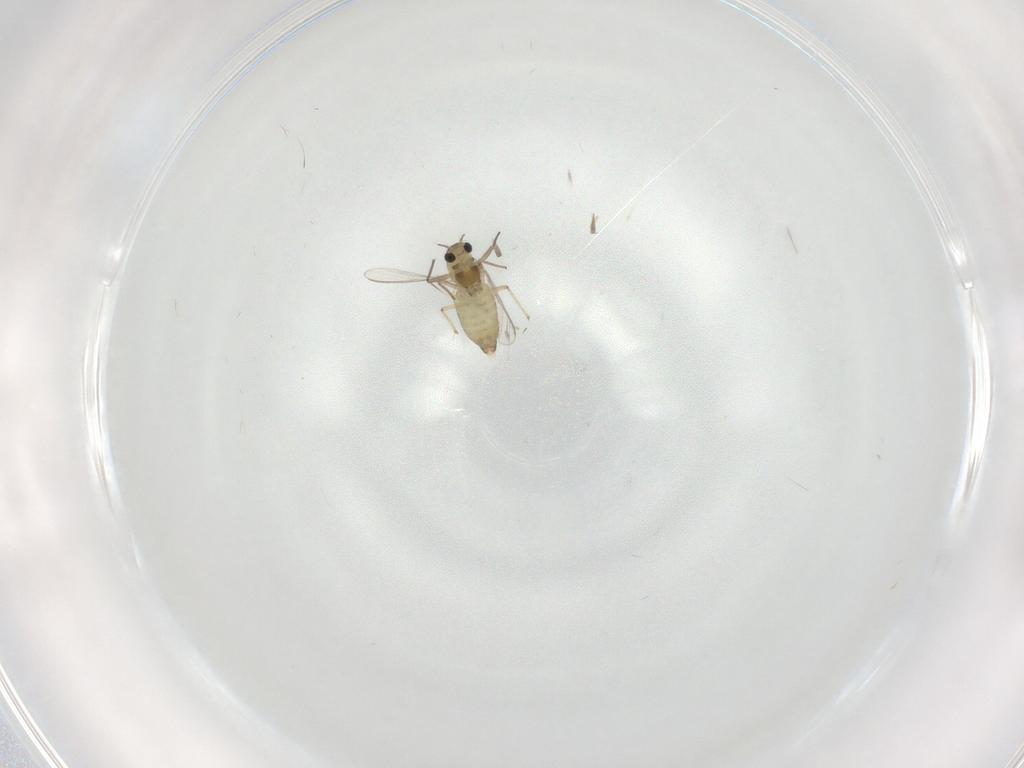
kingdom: Animalia
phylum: Arthropoda
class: Insecta
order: Diptera
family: Chironomidae
